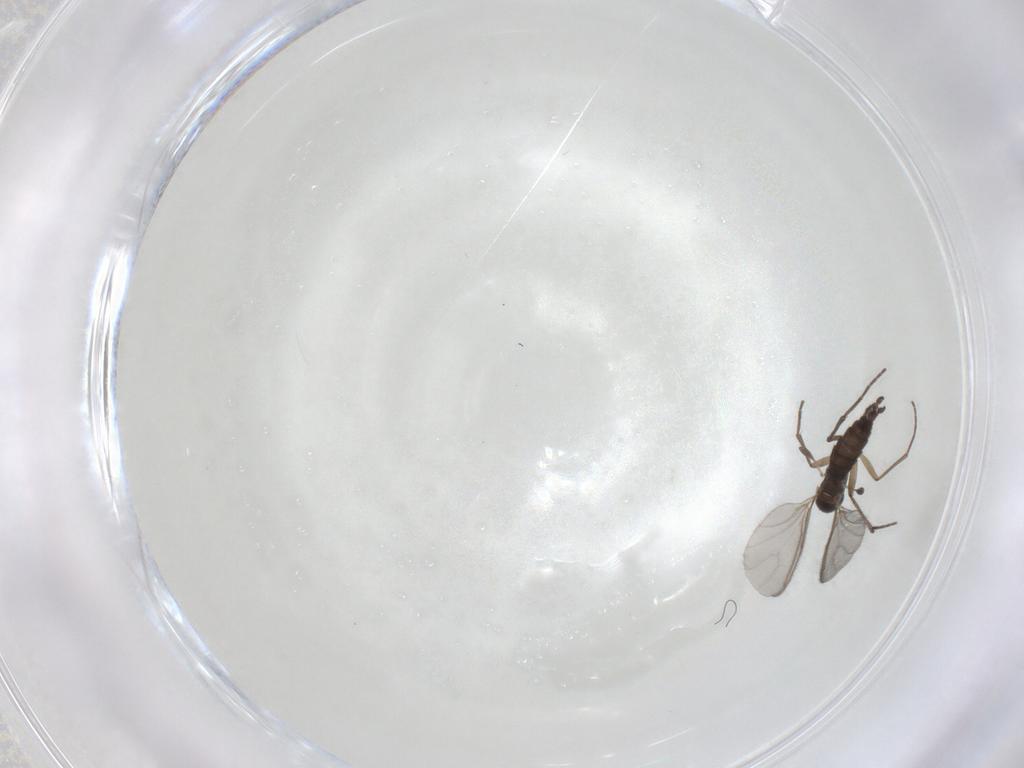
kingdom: Animalia
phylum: Arthropoda
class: Insecta
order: Diptera
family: Sciaridae
